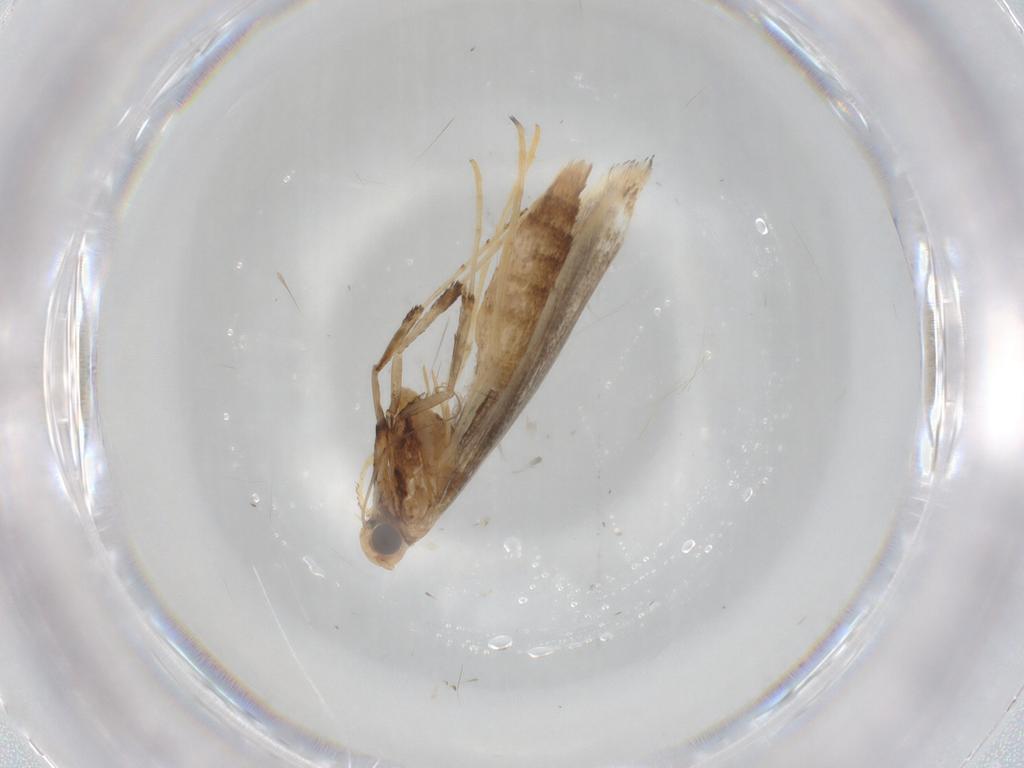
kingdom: Animalia
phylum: Arthropoda
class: Insecta
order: Lepidoptera
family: Gracillariidae
